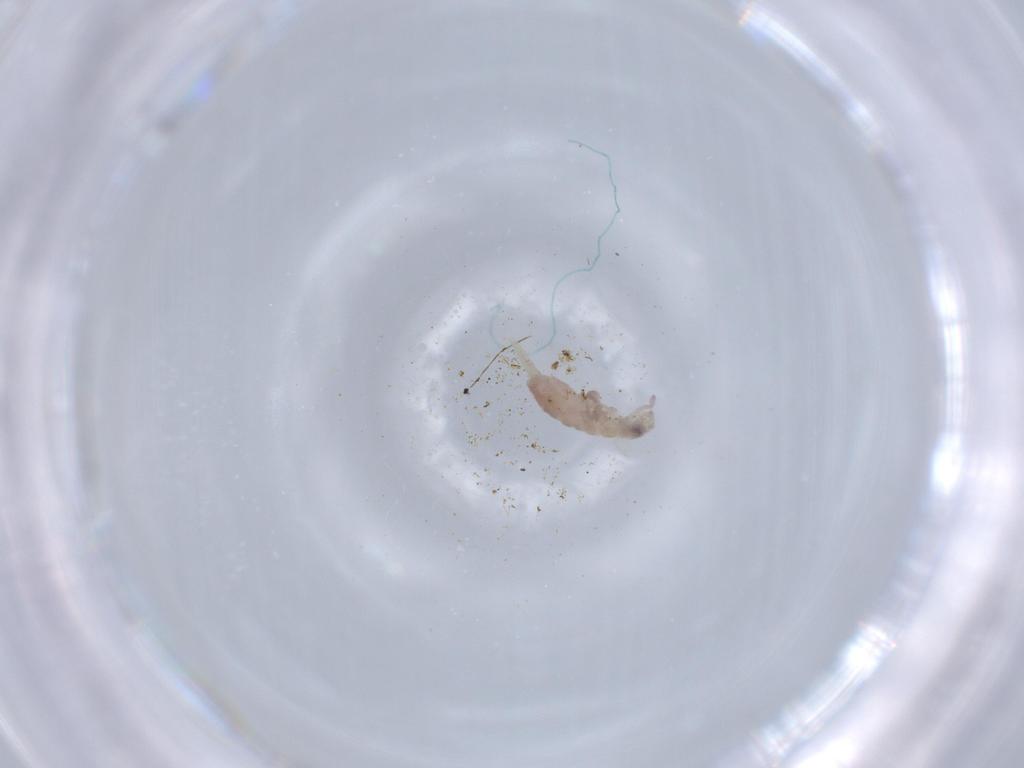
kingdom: Animalia
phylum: Arthropoda
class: Collembola
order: Entomobryomorpha
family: Isotomidae
